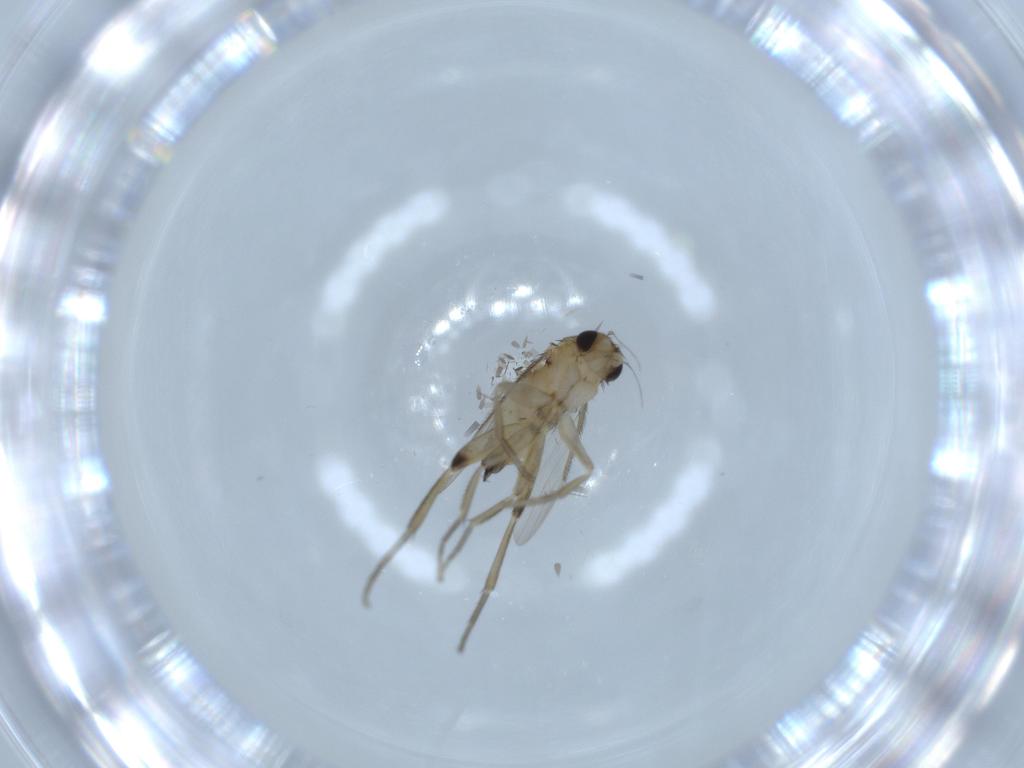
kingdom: Animalia
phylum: Arthropoda
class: Insecta
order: Diptera
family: Phoridae
